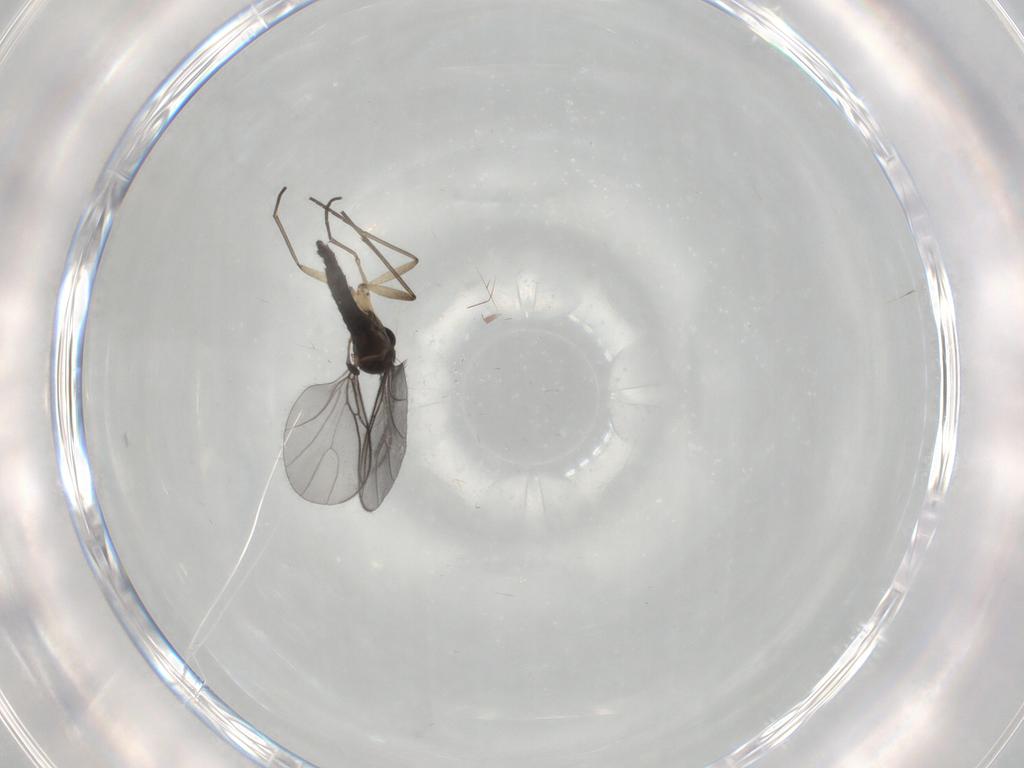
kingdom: Animalia
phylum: Arthropoda
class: Insecta
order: Diptera
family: Sciaridae
